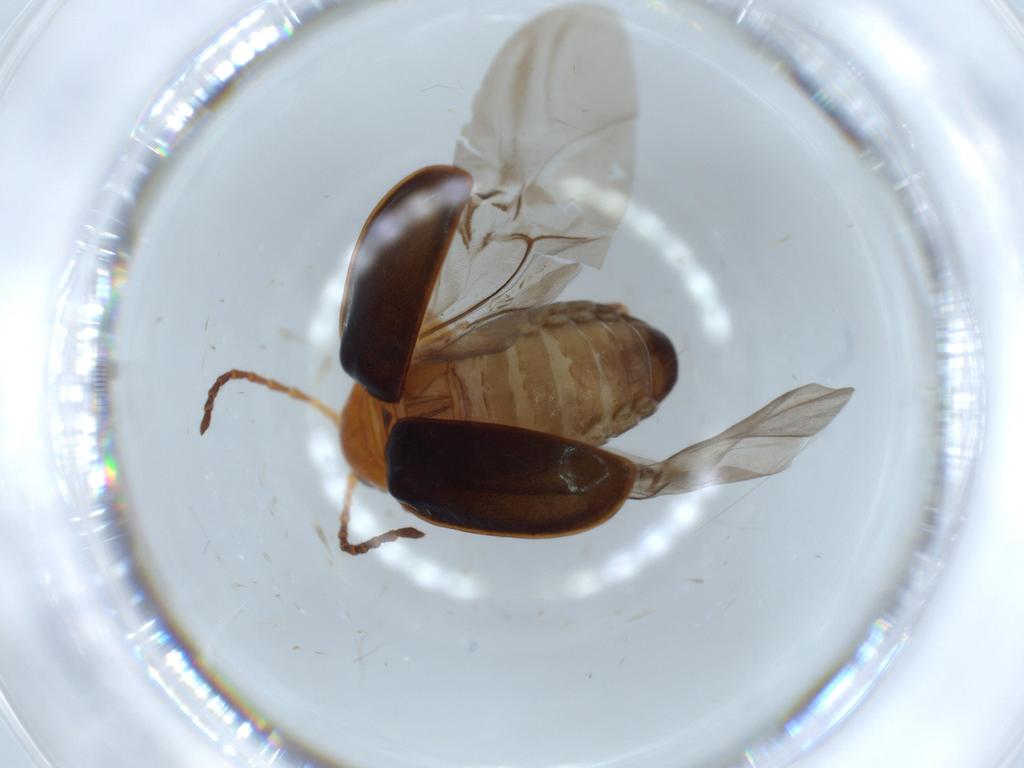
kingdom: Animalia
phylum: Arthropoda
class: Insecta
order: Coleoptera
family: Chrysomelidae
